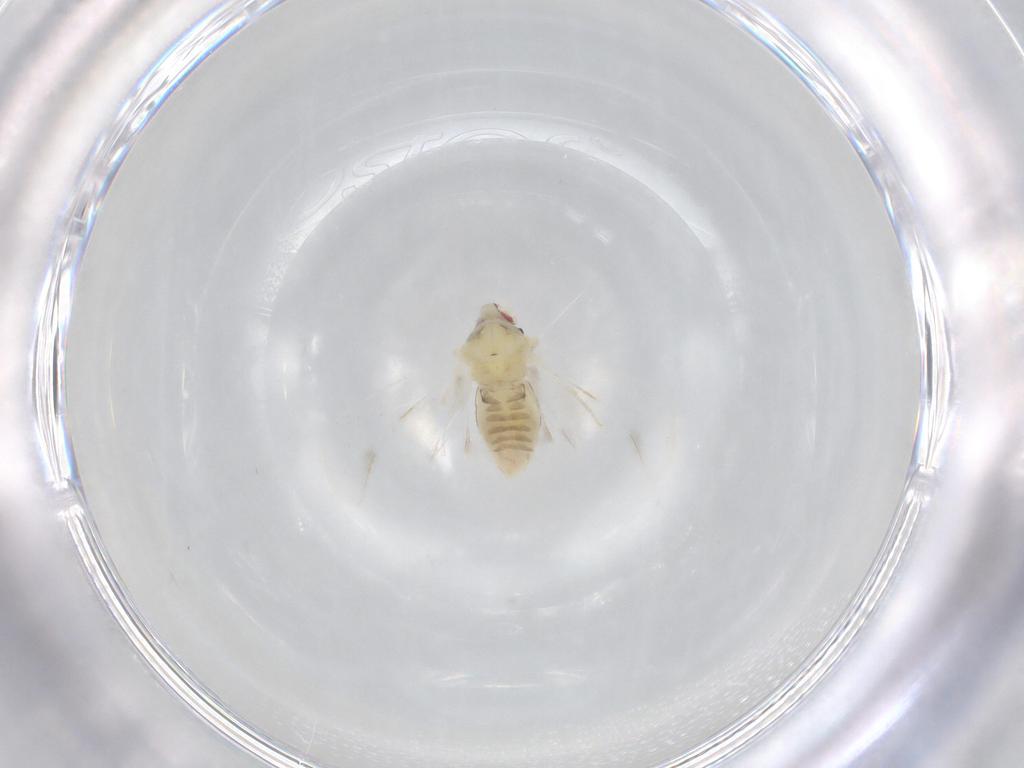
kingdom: Animalia
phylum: Arthropoda
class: Insecta
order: Hemiptera
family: Aleyrodidae
